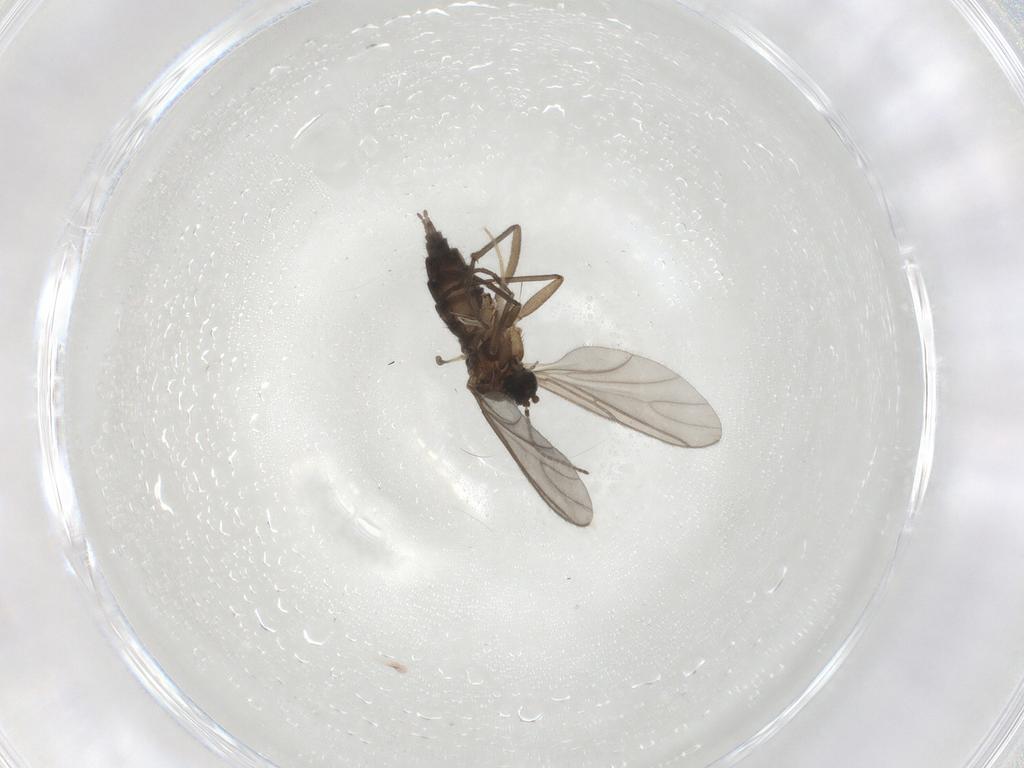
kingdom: Animalia
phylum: Arthropoda
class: Insecta
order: Diptera
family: Sciaridae
